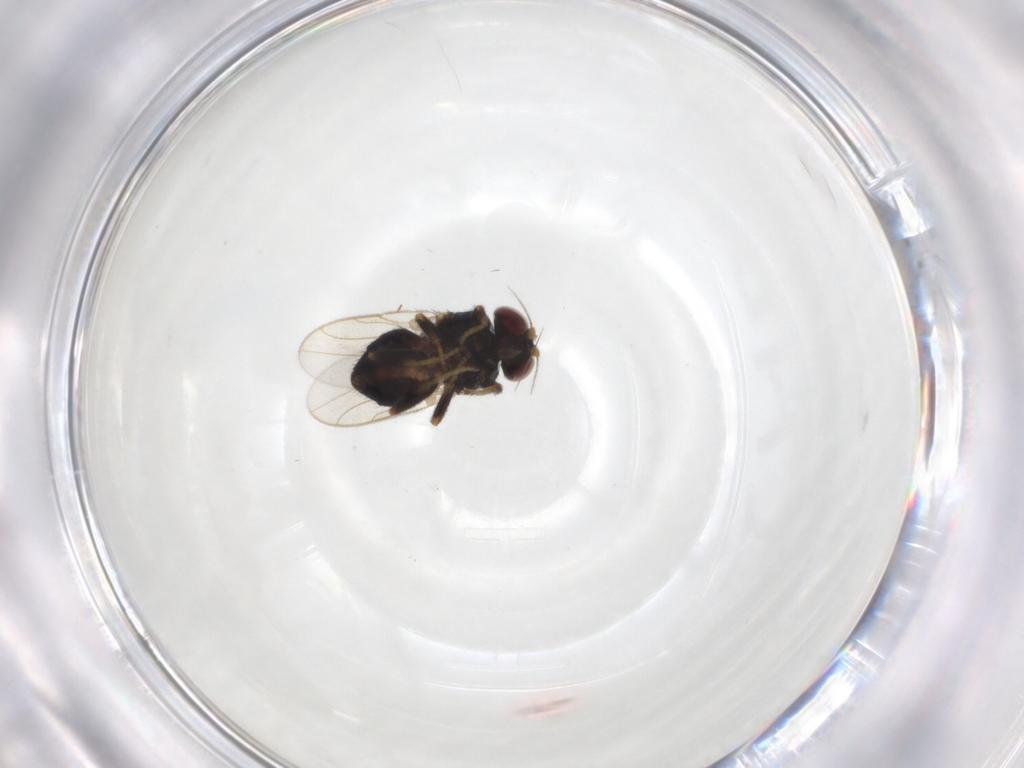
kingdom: Animalia
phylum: Arthropoda
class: Insecta
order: Diptera
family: Chloropidae
